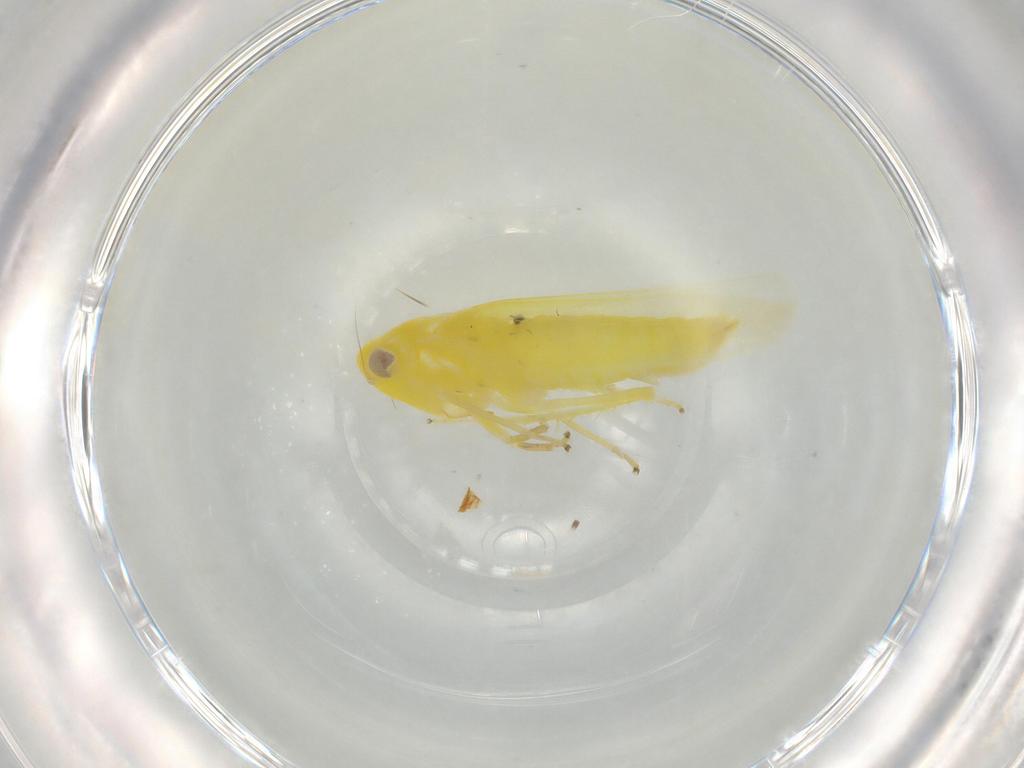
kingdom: Animalia
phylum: Arthropoda
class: Insecta
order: Hemiptera
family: Cicadellidae
